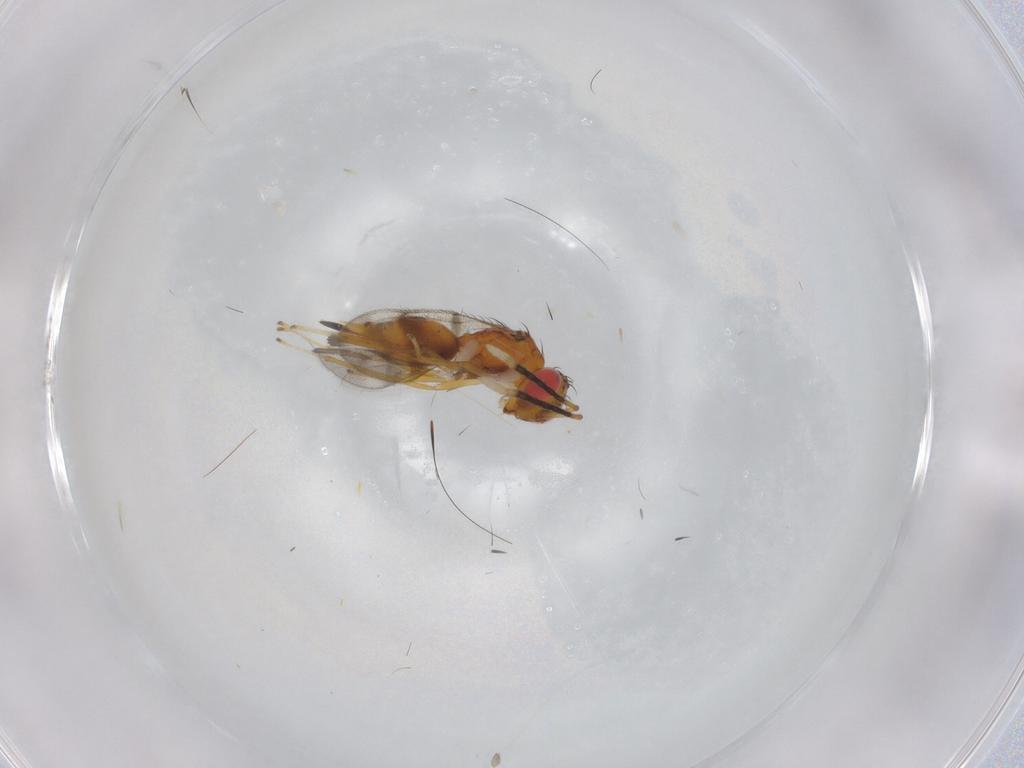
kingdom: Animalia
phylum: Arthropoda
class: Insecta
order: Hymenoptera
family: Diparidae
